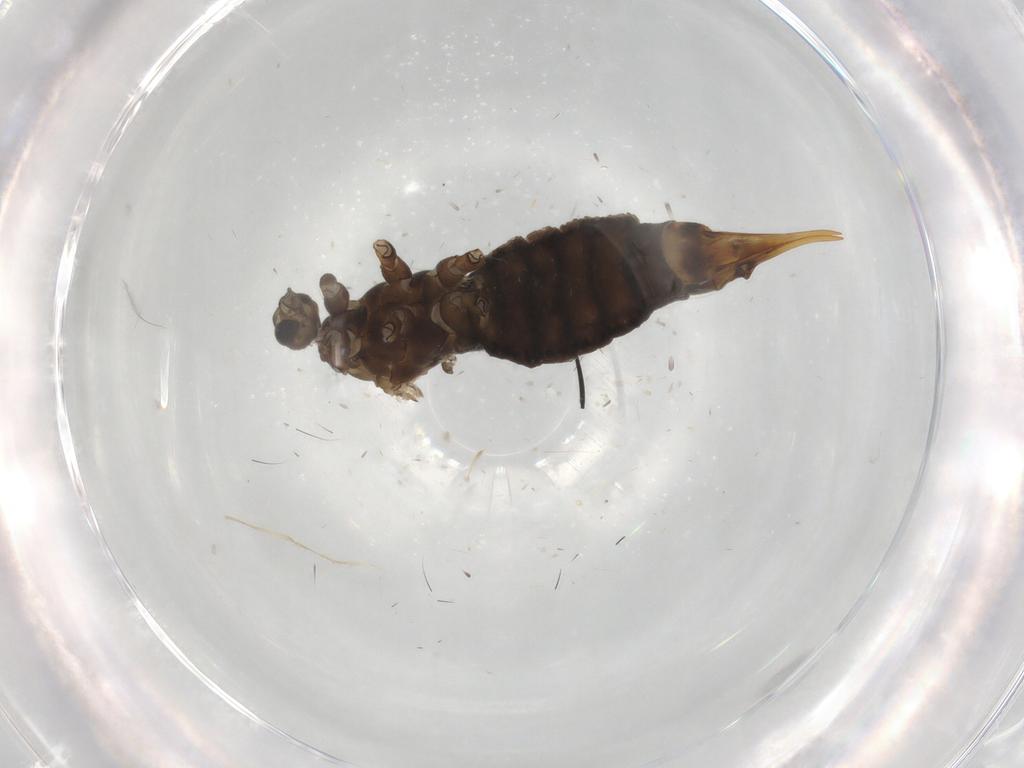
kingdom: Animalia
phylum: Arthropoda
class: Insecta
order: Diptera
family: Limoniidae
